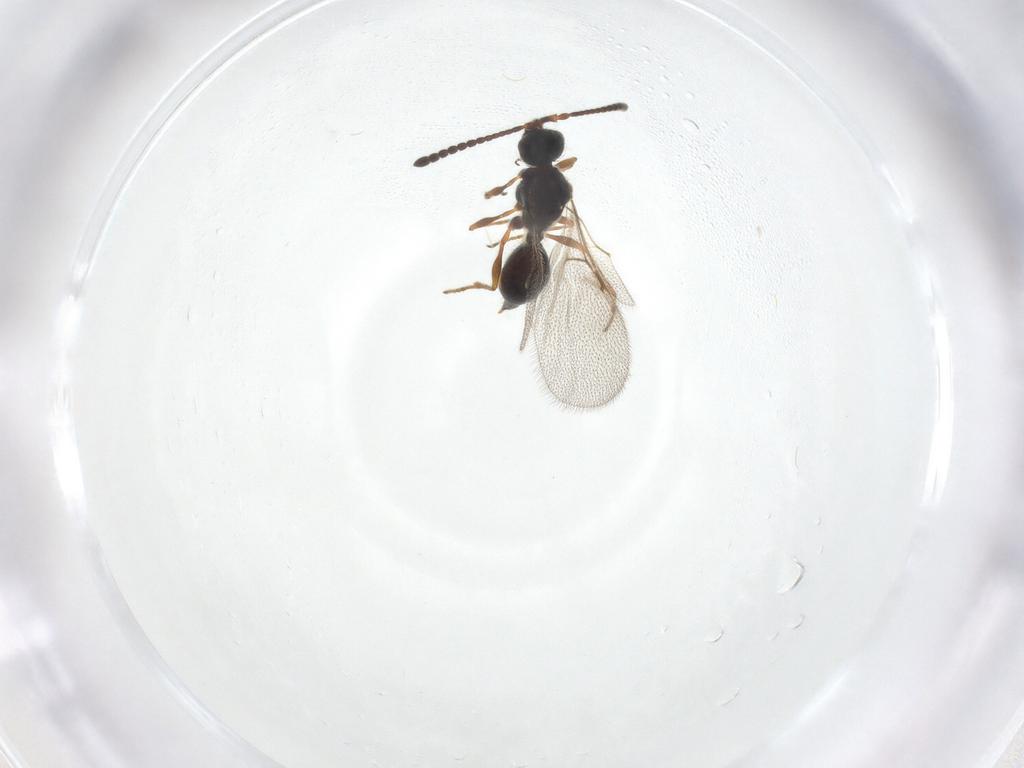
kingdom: Animalia
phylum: Arthropoda
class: Insecta
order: Hymenoptera
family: Diapriidae
